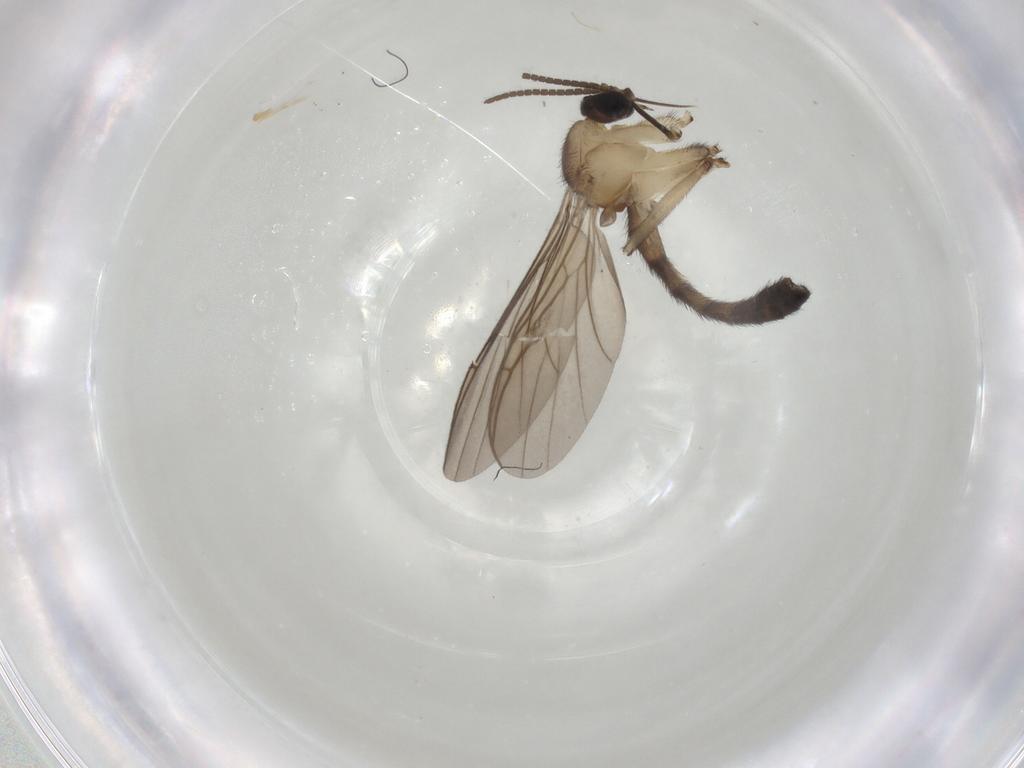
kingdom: Animalia
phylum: Arthropoda
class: Insecta
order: Diptera
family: Keroplatidae
